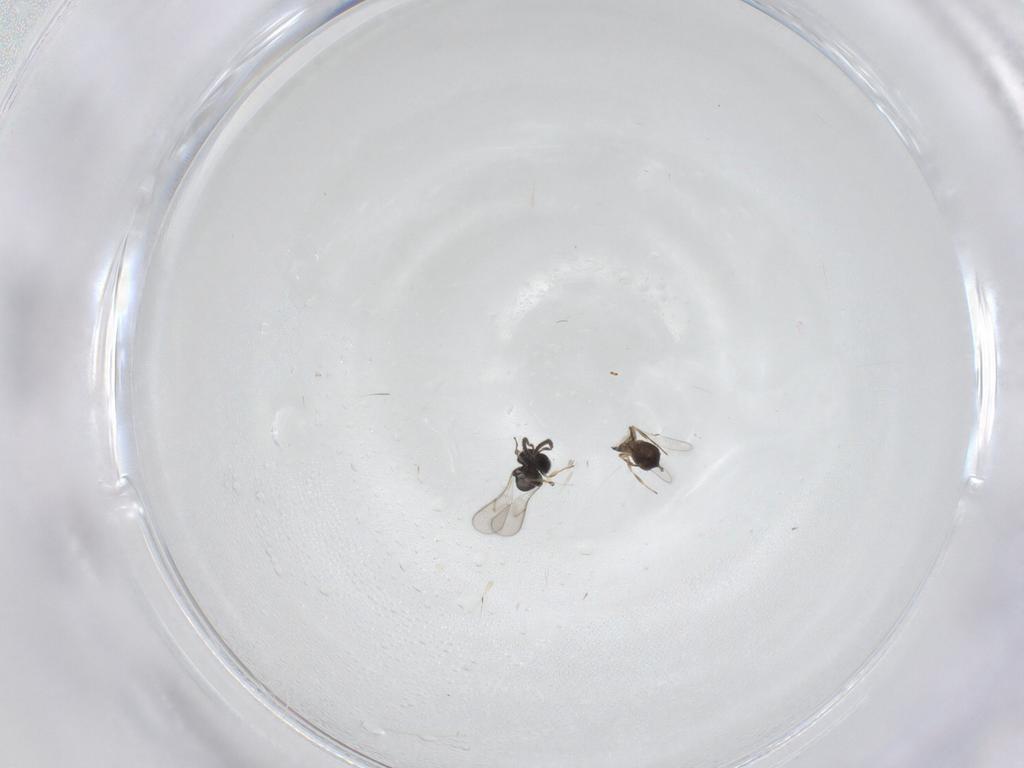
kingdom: Animalia
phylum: Arthropoda
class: Insecta
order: Hymenoptera
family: Scelionidae
